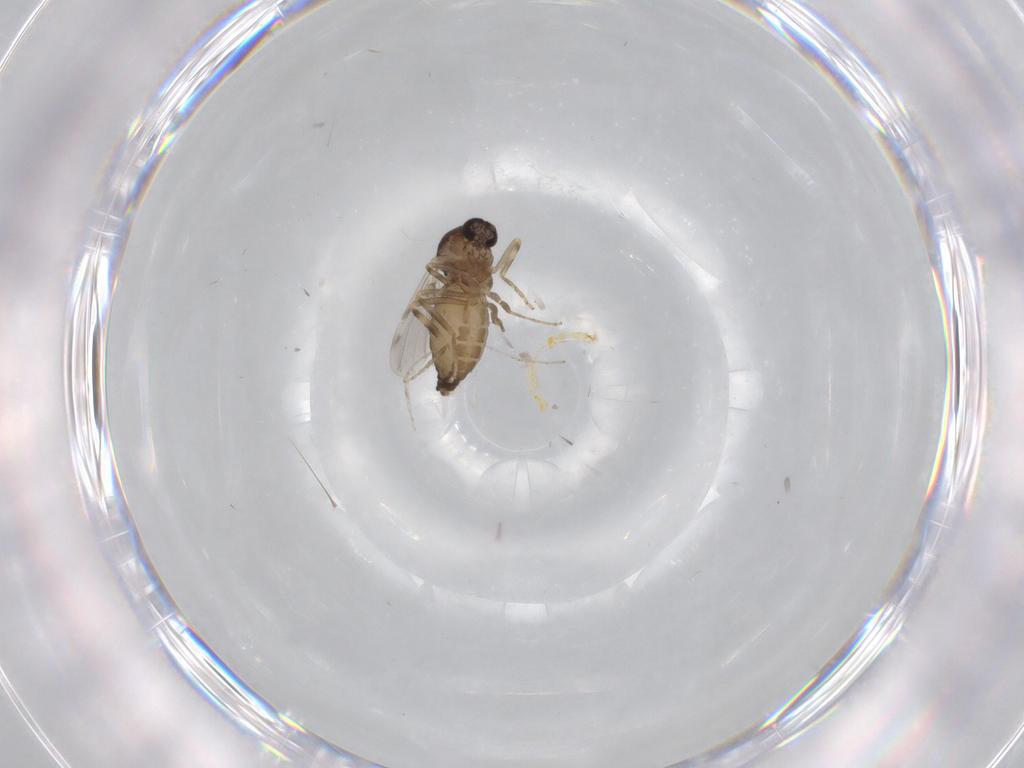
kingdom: Animalia
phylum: Arthropoda
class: Insecta
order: Diptera
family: Ceratopogonidae
